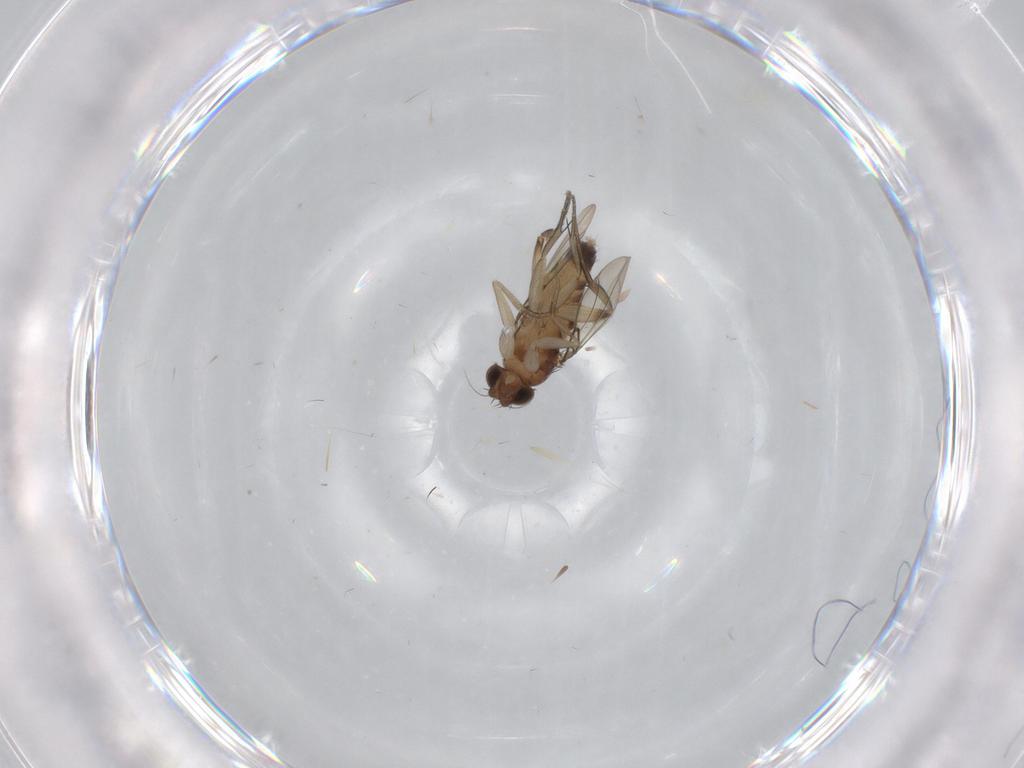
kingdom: Animalia
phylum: Arthropoda
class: Insecta
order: Diptera
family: Phoridae
